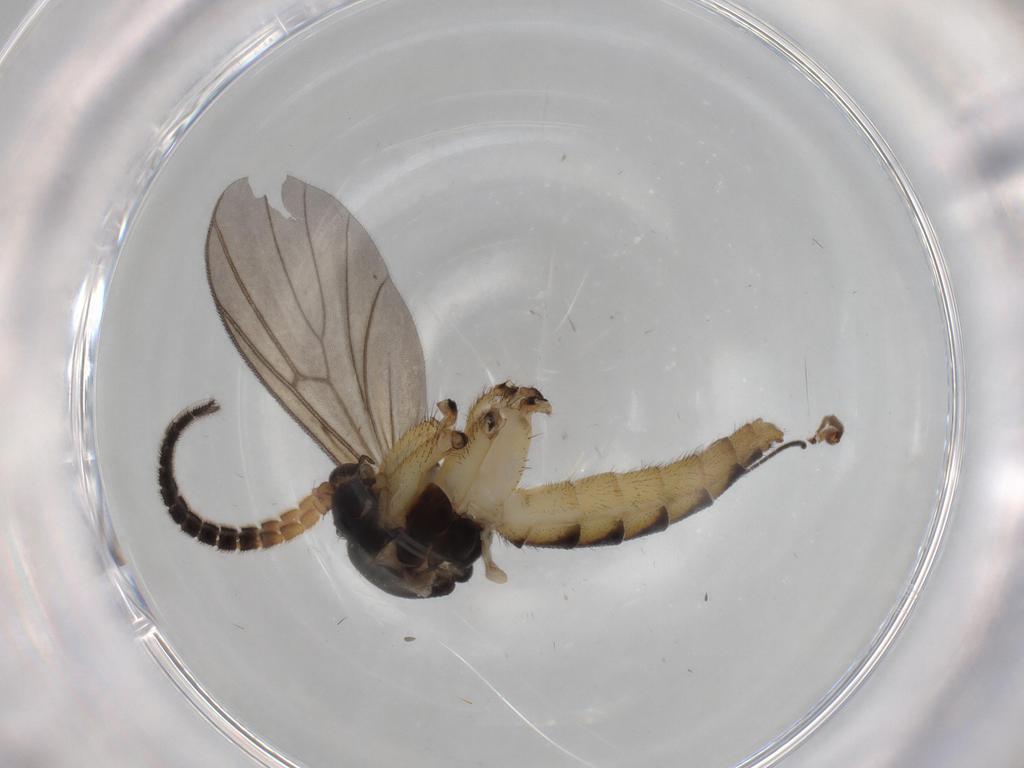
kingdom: Animalia
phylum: Arthropoda
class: Insecta
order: Diptera
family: Mycetophilidae
